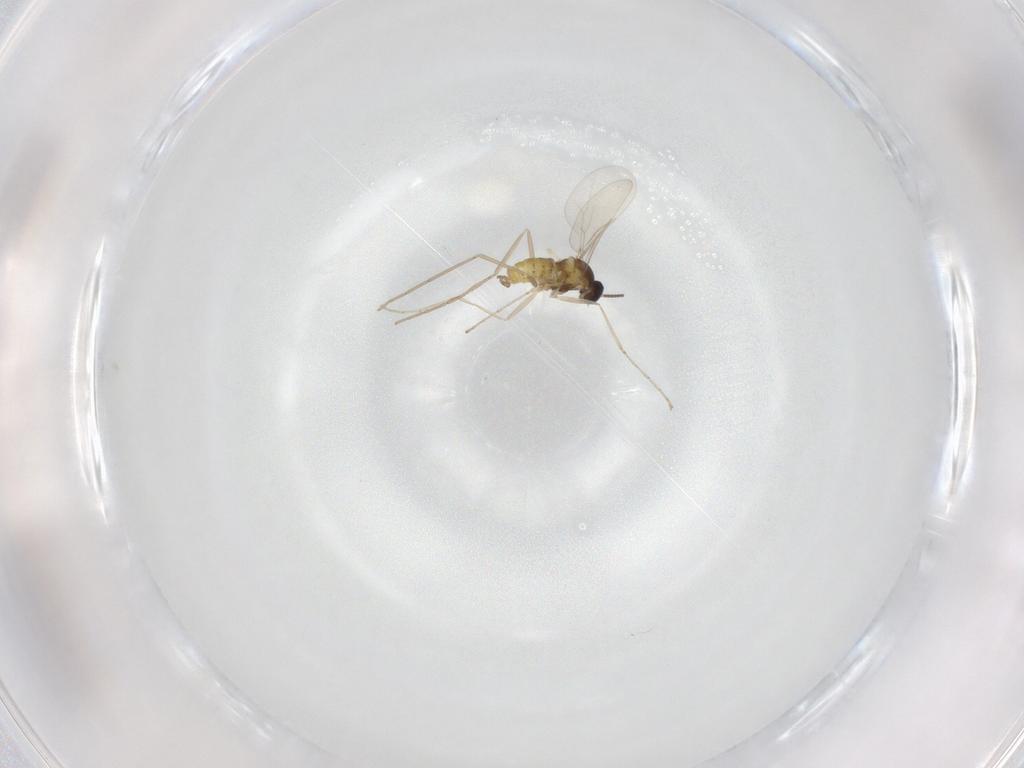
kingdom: Animalia
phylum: Arthropoda
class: Insecta
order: Diptera
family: Cecidomyiidae
